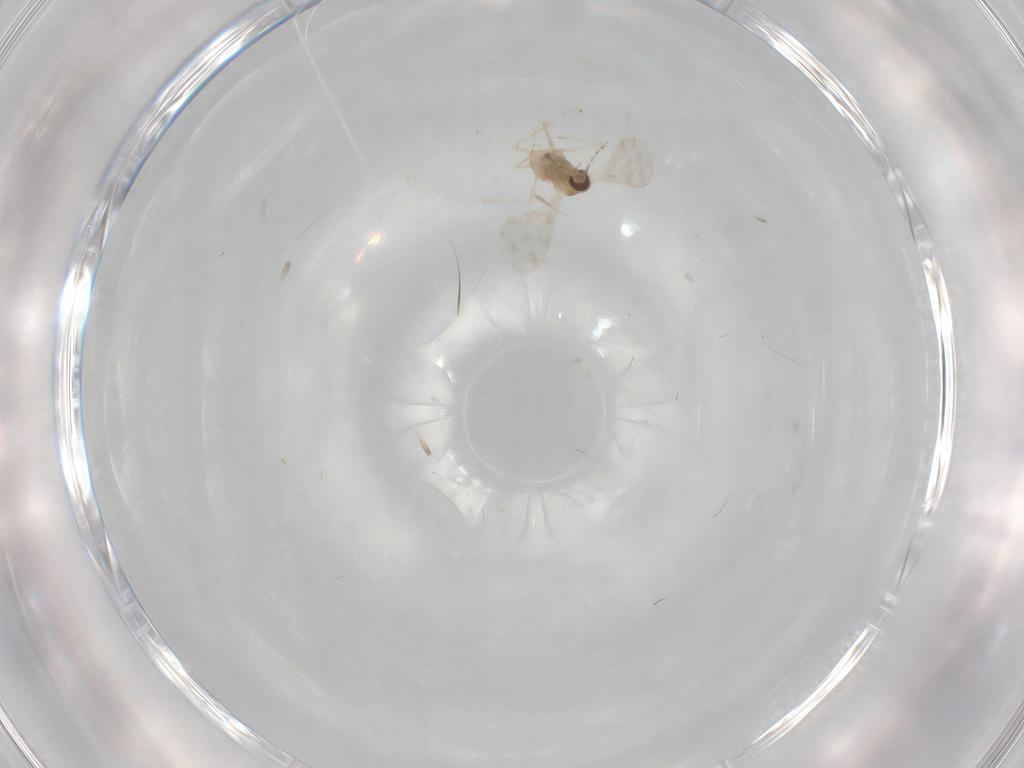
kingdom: Animalia
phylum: Arthropoda
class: Insecta
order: Diptera
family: Cecidomyiidae
